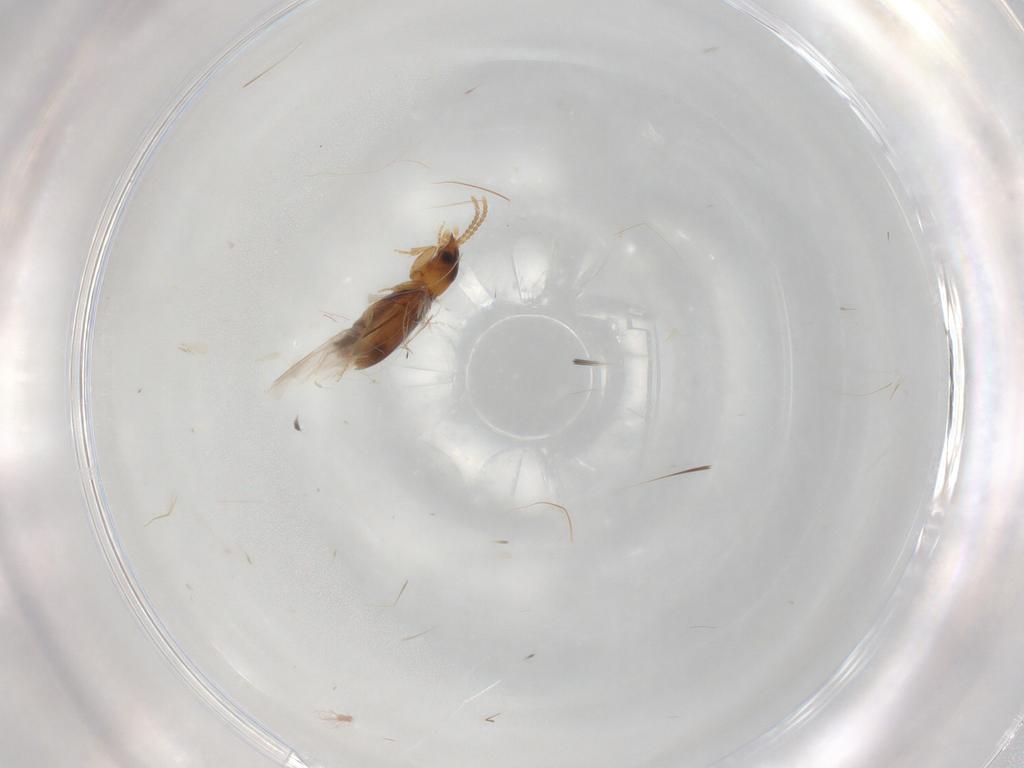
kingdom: Animalia
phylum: Arthropoda
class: Insecta
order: Coleoptera
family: Carabidae
